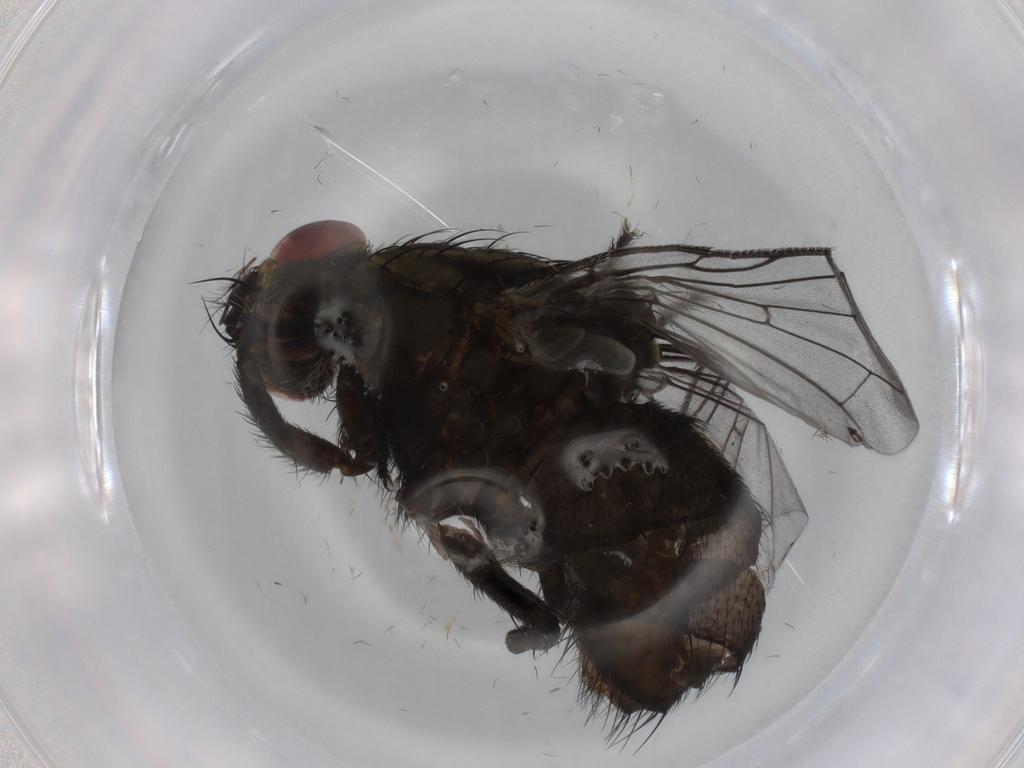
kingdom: Animalia
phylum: Arthropoda
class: Insecta
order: Diptera
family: Sarcophagidae
